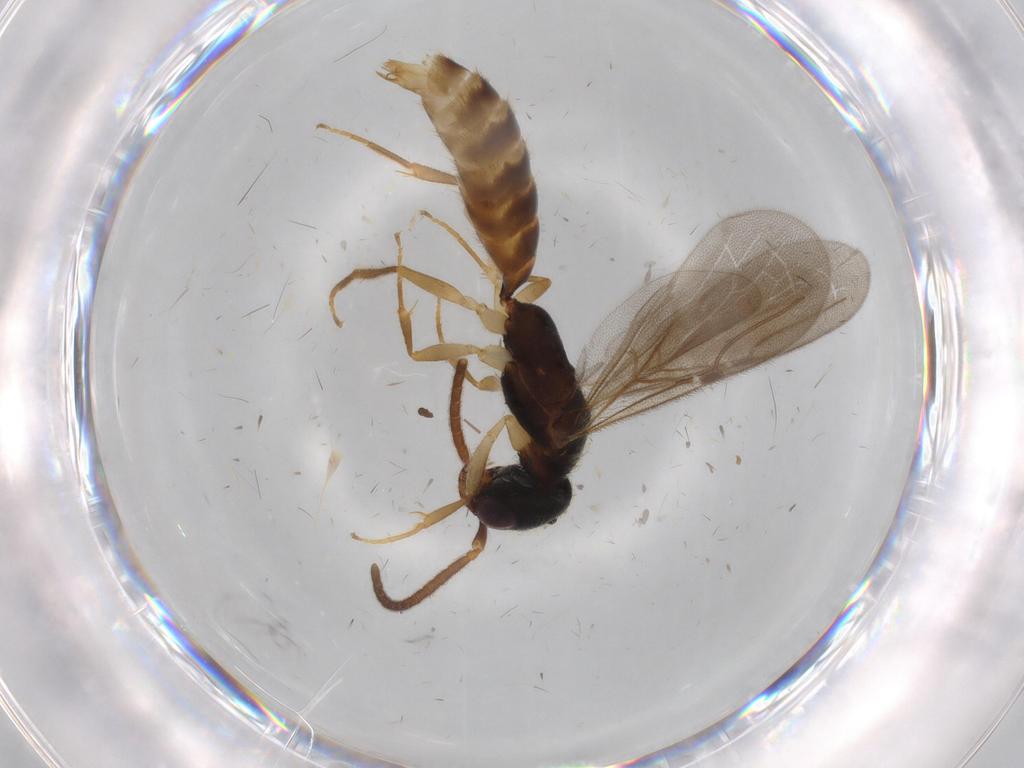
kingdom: Animalia
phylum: Arthropoda
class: Insecta
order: Hymenoptera
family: Bethylidae
